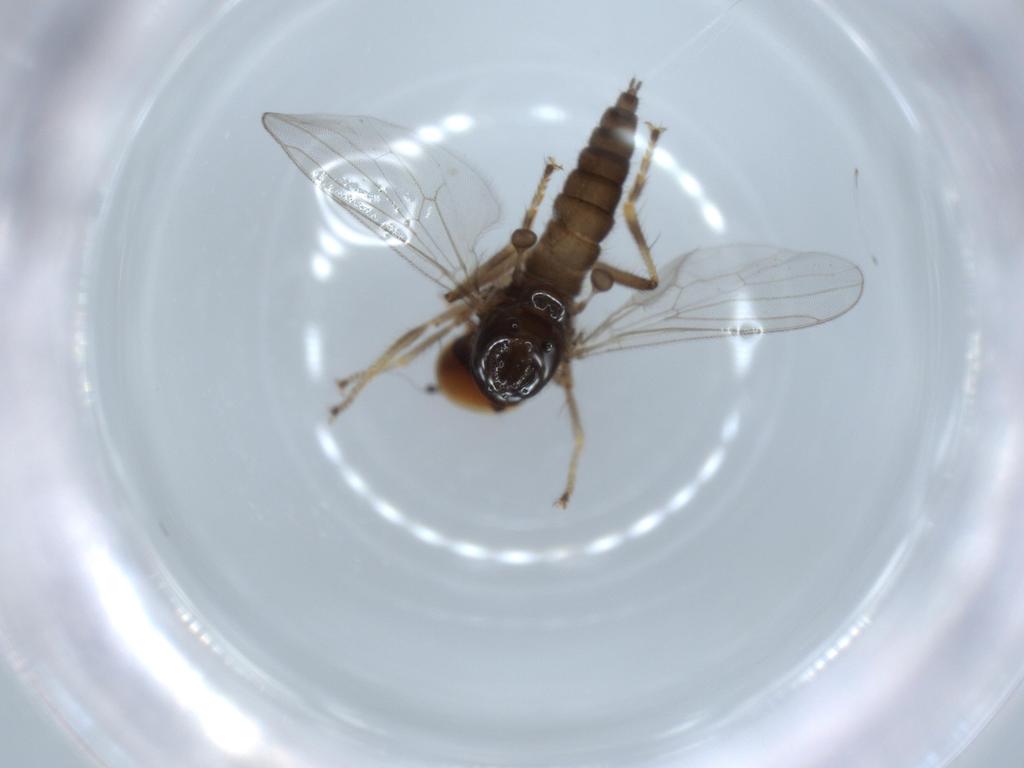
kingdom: Animalia
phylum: Arthropoda
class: Insecta
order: Diptera
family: Hybotidae
